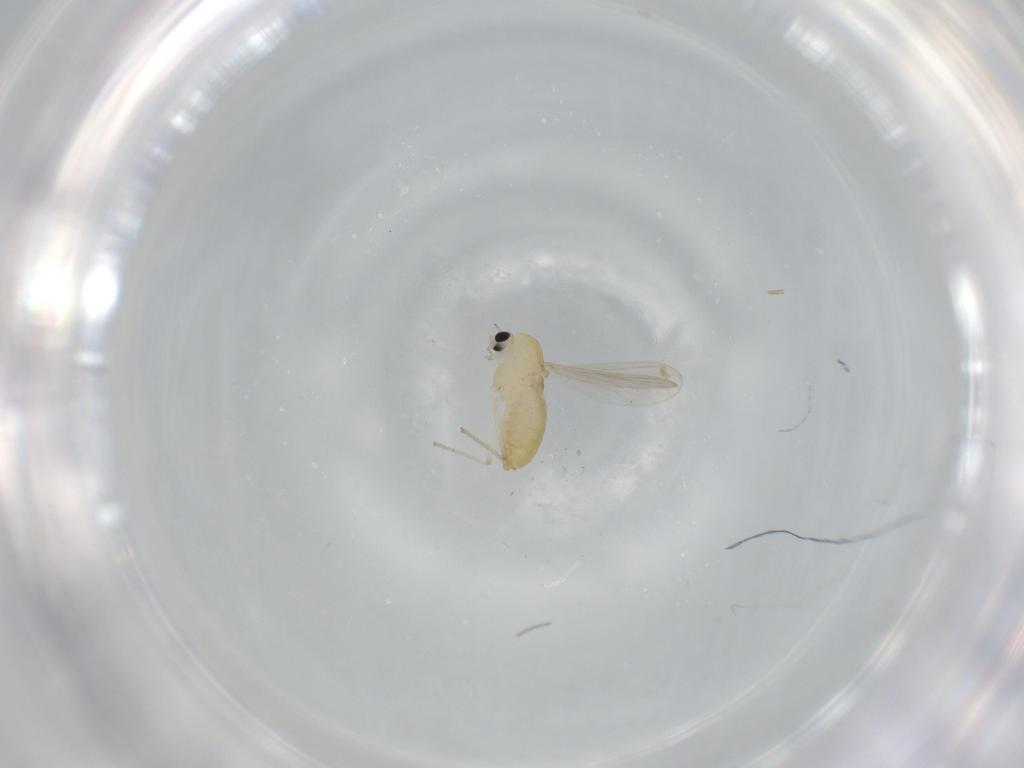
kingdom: Animalia
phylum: Arthropoda
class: Insecta
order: Diptera
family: Chironomidae
